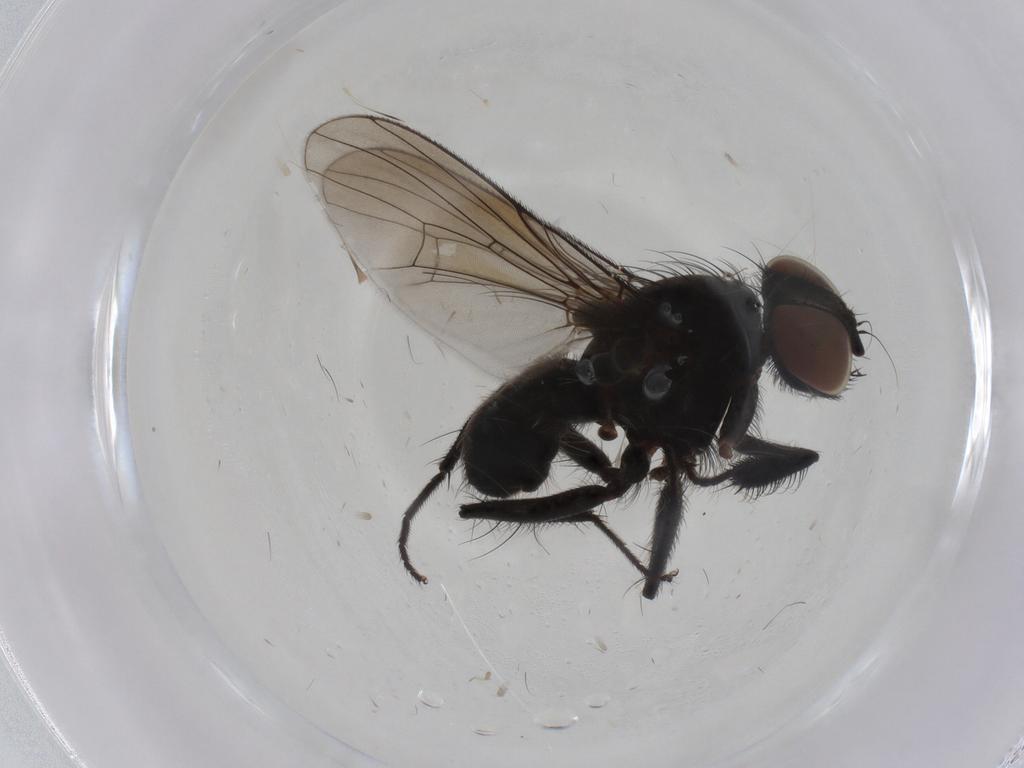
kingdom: Animalia
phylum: Arthropoda
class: Insecta
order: Diptera
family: Muscidae
